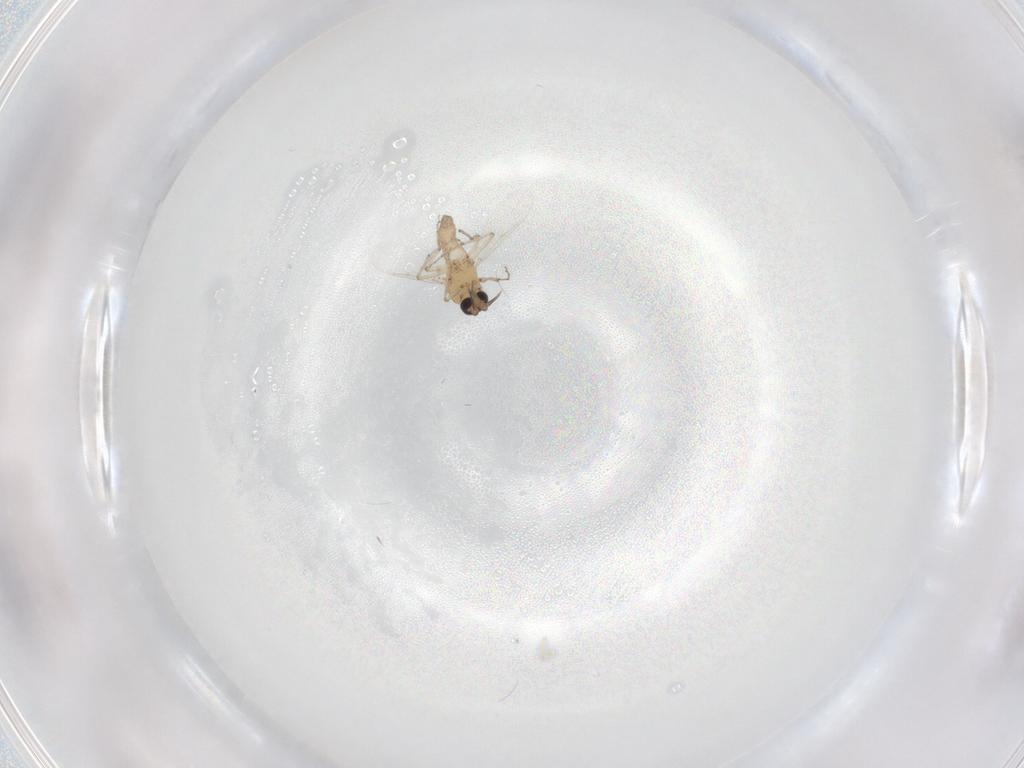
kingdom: Animalia
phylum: Arthropoda
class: Insecta
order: Diptera
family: Ceratopogonidae
